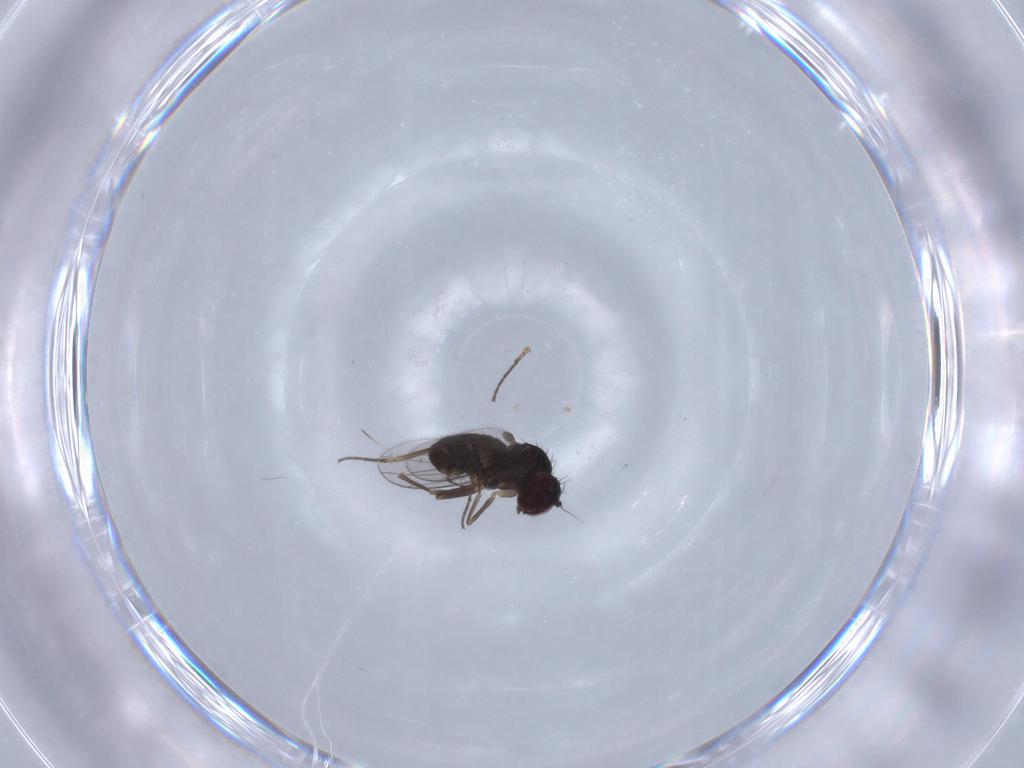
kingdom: Animalia
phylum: Arthropoda
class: Insecta
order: Diptera
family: Dolichopodidae
